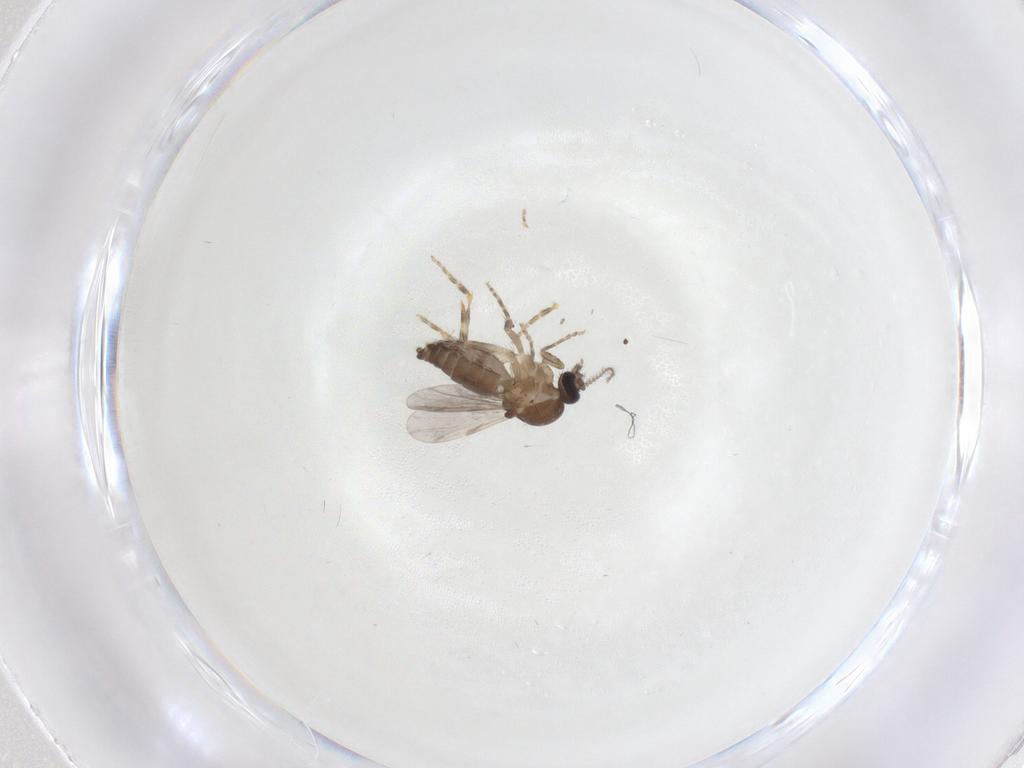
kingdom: Animalia
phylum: Arthropoda
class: Insecta
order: Diptera
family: Ceratopogonidae
